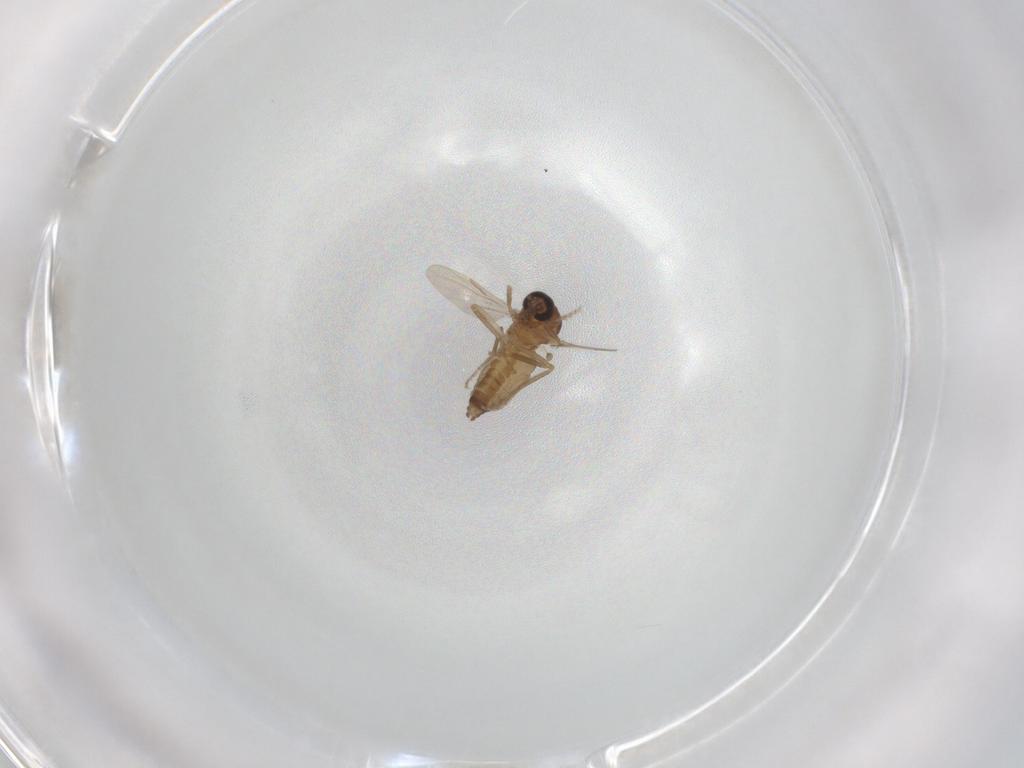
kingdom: Animalia
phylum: Arthropoda
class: Insecta
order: Diptera
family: Ceratopogonidae
